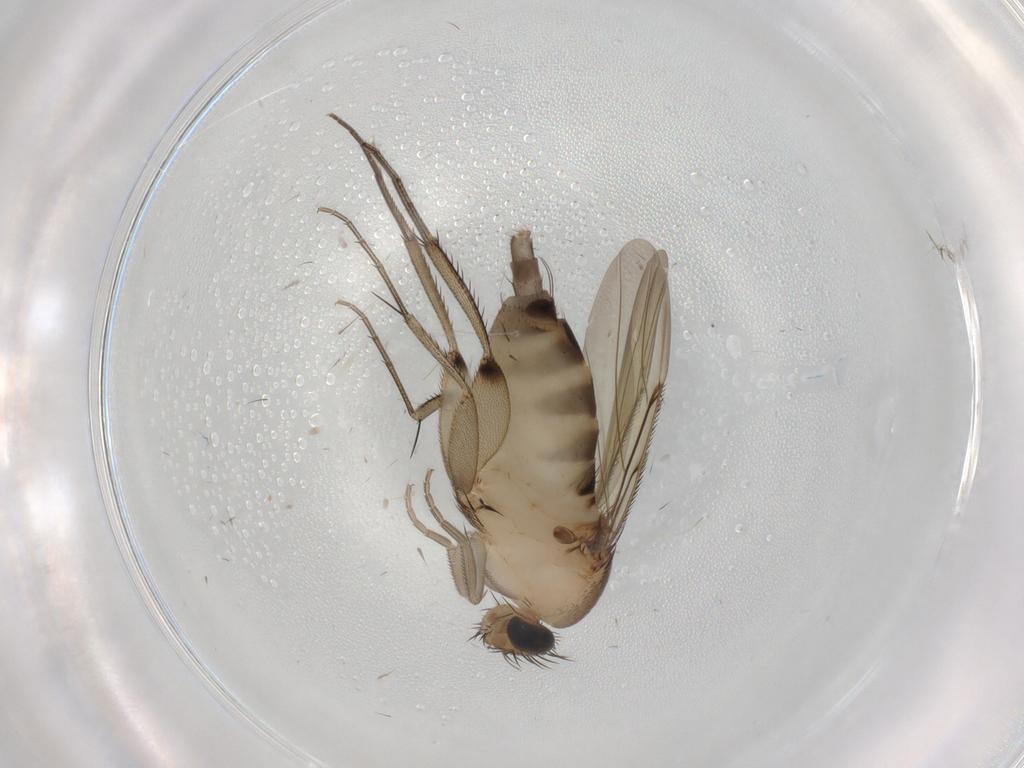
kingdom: Animalia
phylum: Arthropoda
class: Insecta
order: Diptera
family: Phoridae
